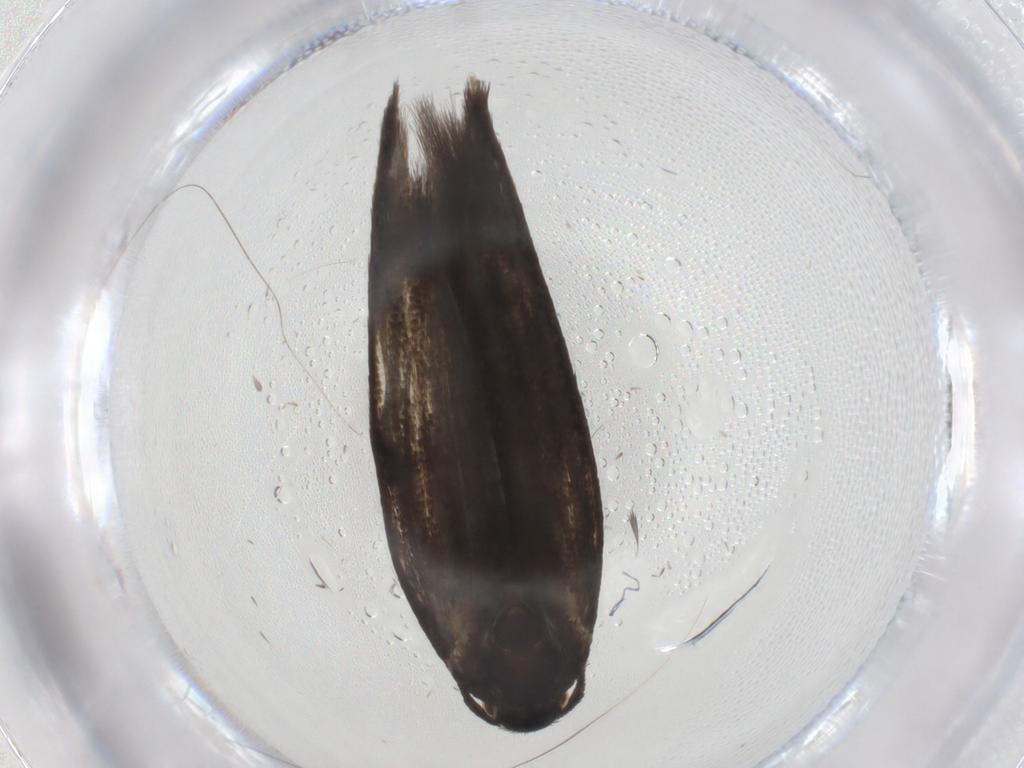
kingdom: Animalia
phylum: Arthropoda
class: Insecta
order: Lepidoptera
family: Scythrididae
